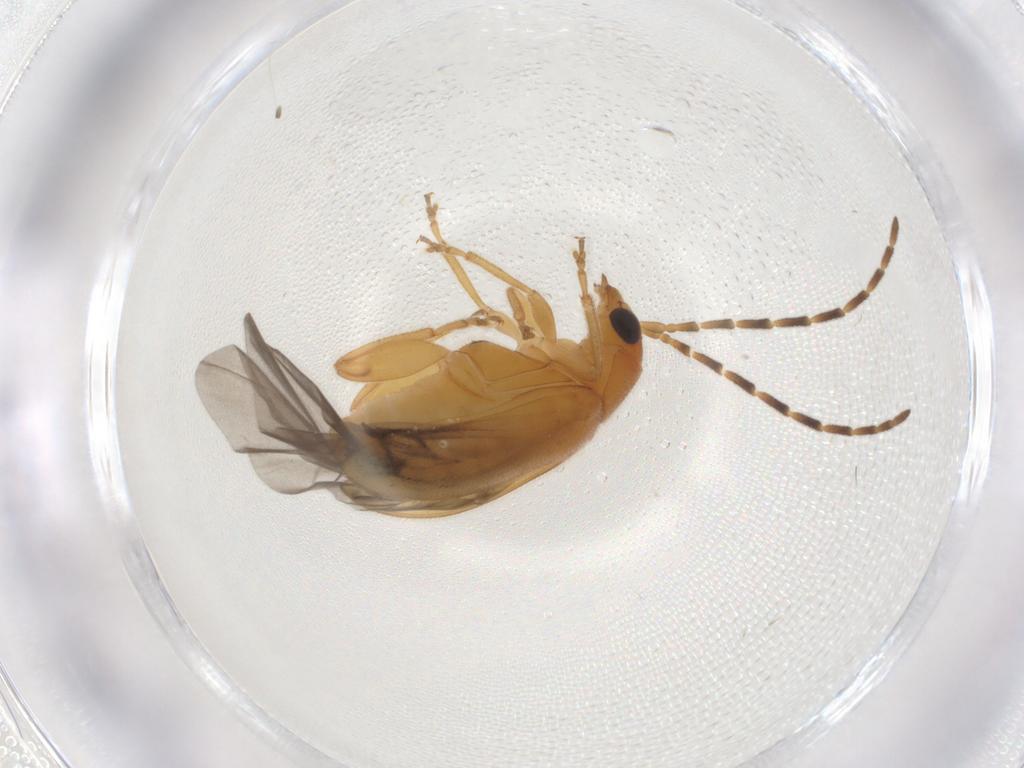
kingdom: Animalia
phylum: Arthropoda
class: Insecta
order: Coleoptera
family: Chrysomelidae
